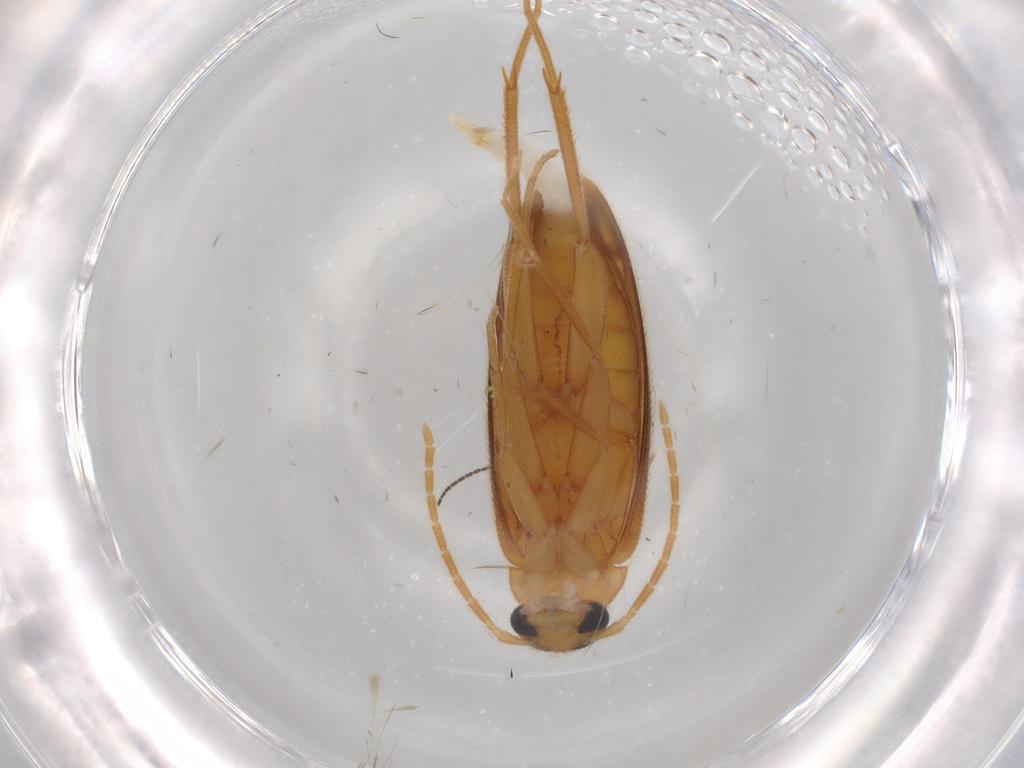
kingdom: Animalia
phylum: Arthropoda
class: Insecta
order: Coleoptera
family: Scraptiidae
